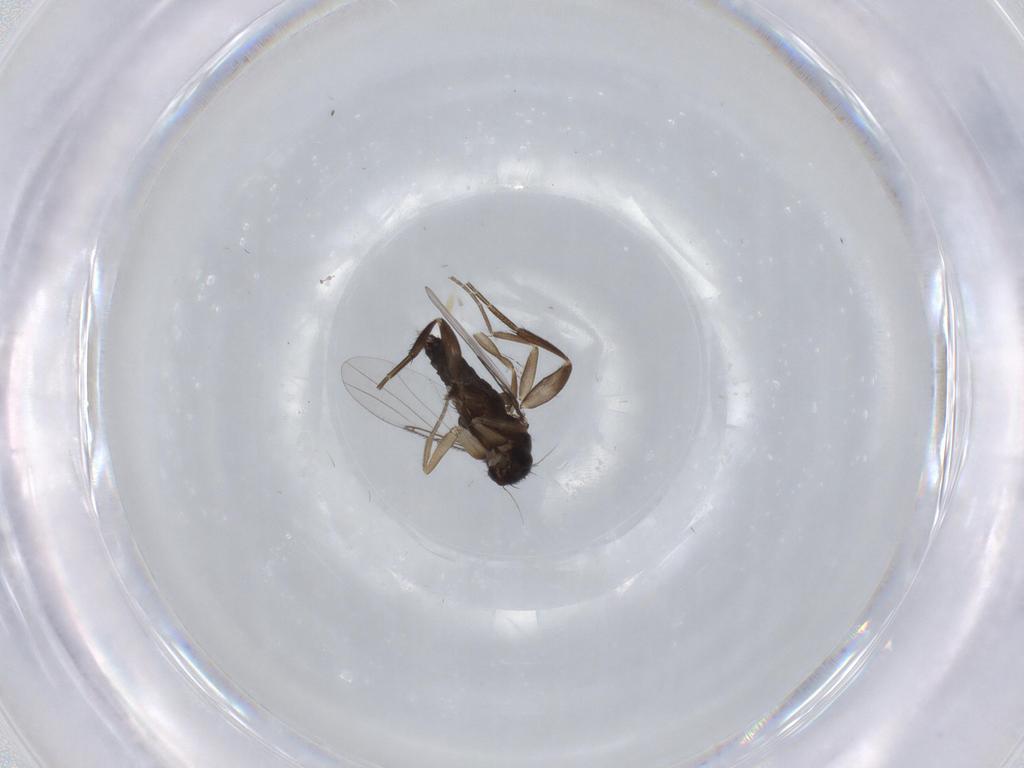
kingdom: Animalia
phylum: Arthropoda
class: Insecta
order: Diptera
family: Phoridae
